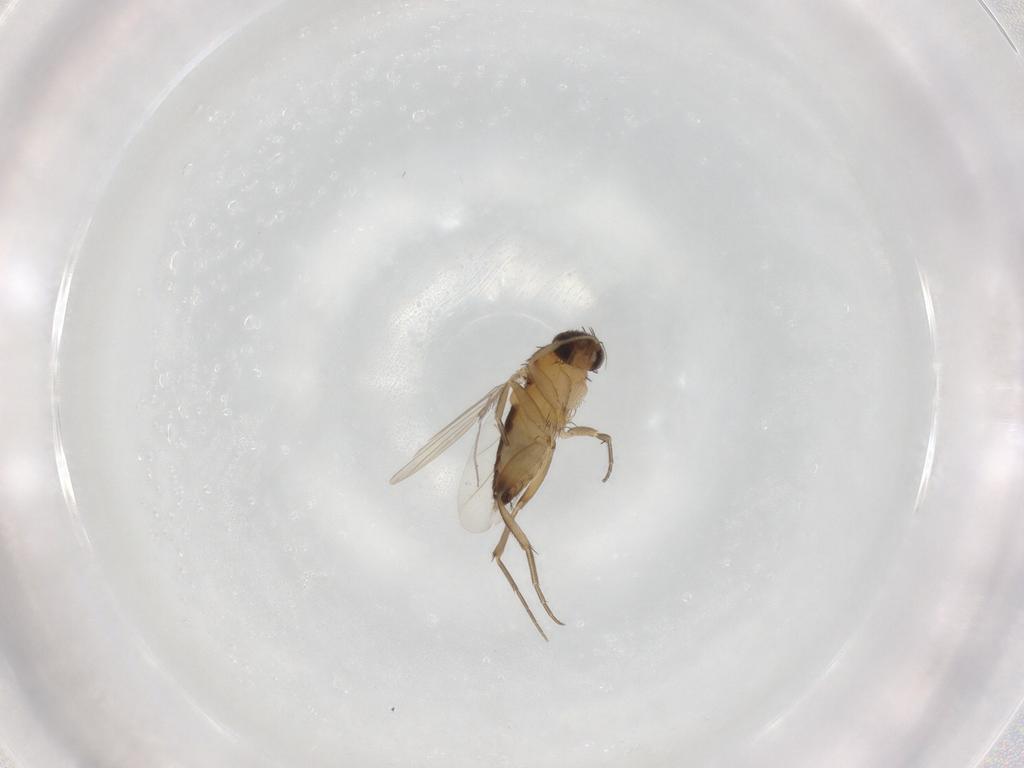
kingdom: Animalia
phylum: Arthropoda
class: Insecta
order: Diptera
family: Phoridae
